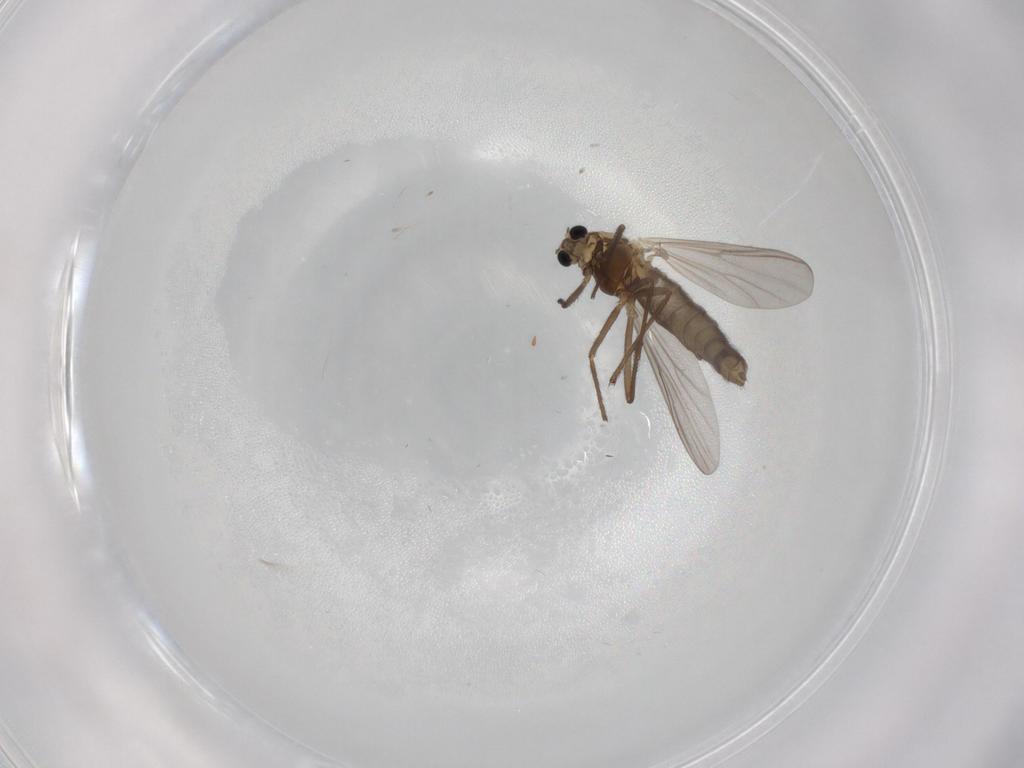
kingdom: Animalia
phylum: Arthropoda
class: Insecta
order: Diptera
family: Chironomidae
